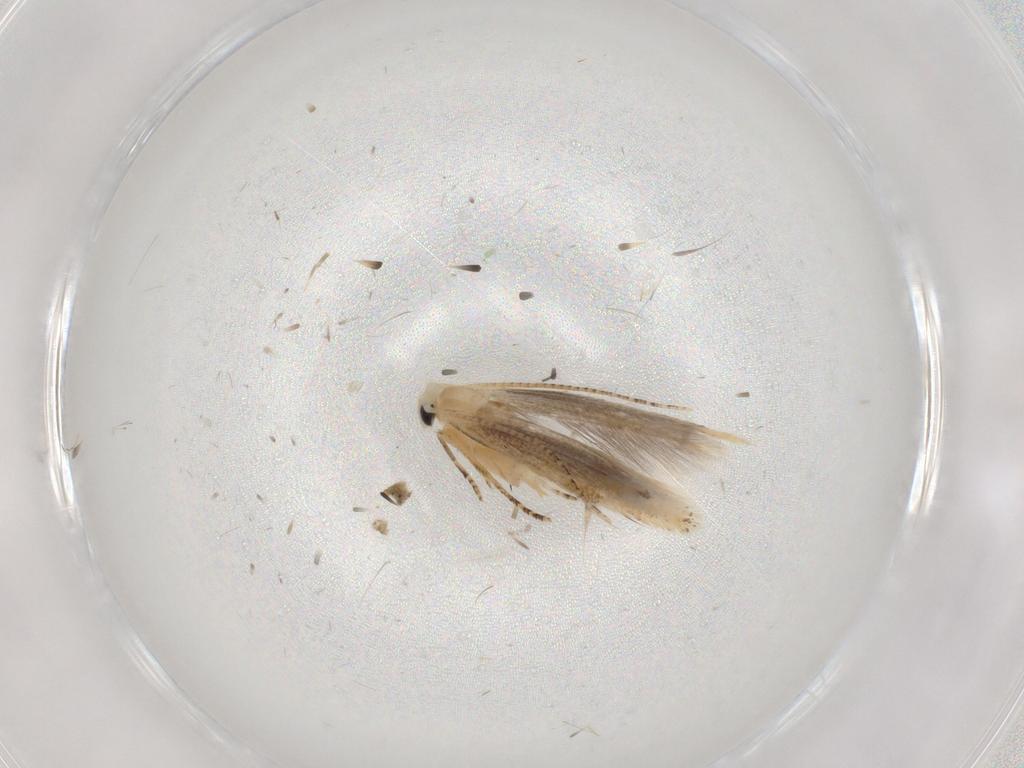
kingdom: Animalia
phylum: Arthropoda
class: Insecta
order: Lepidoptera
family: Bucculatricidae
